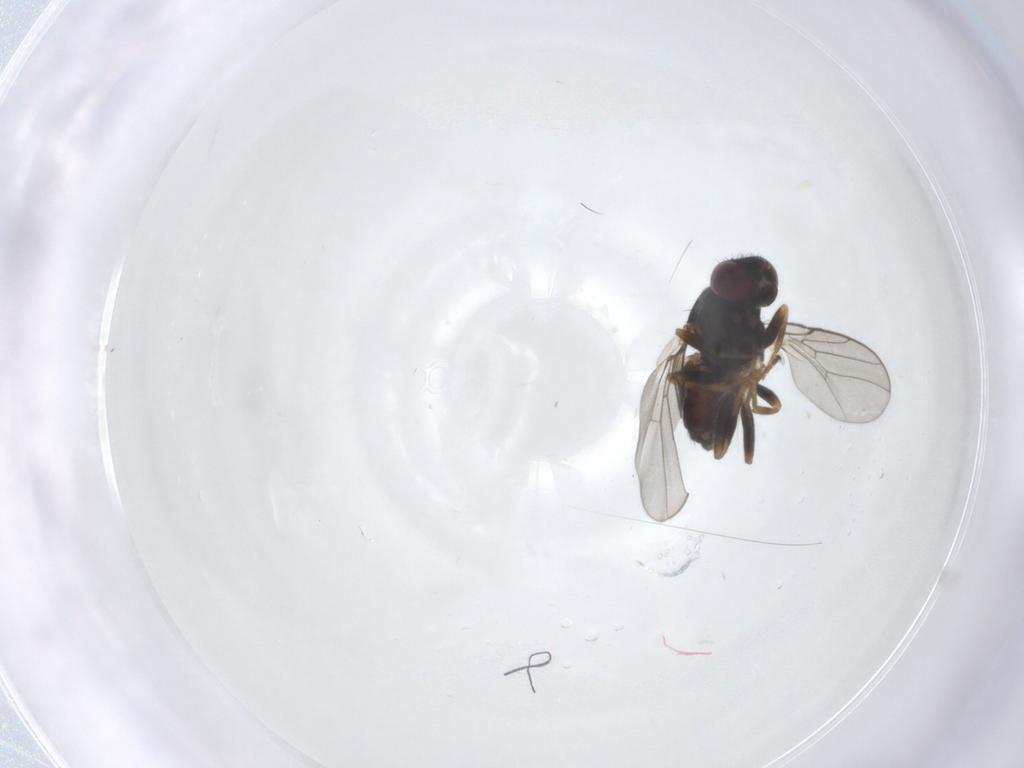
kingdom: Animalia
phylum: Arthropoda
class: Insecta
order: Diptera
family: Chloropidae
